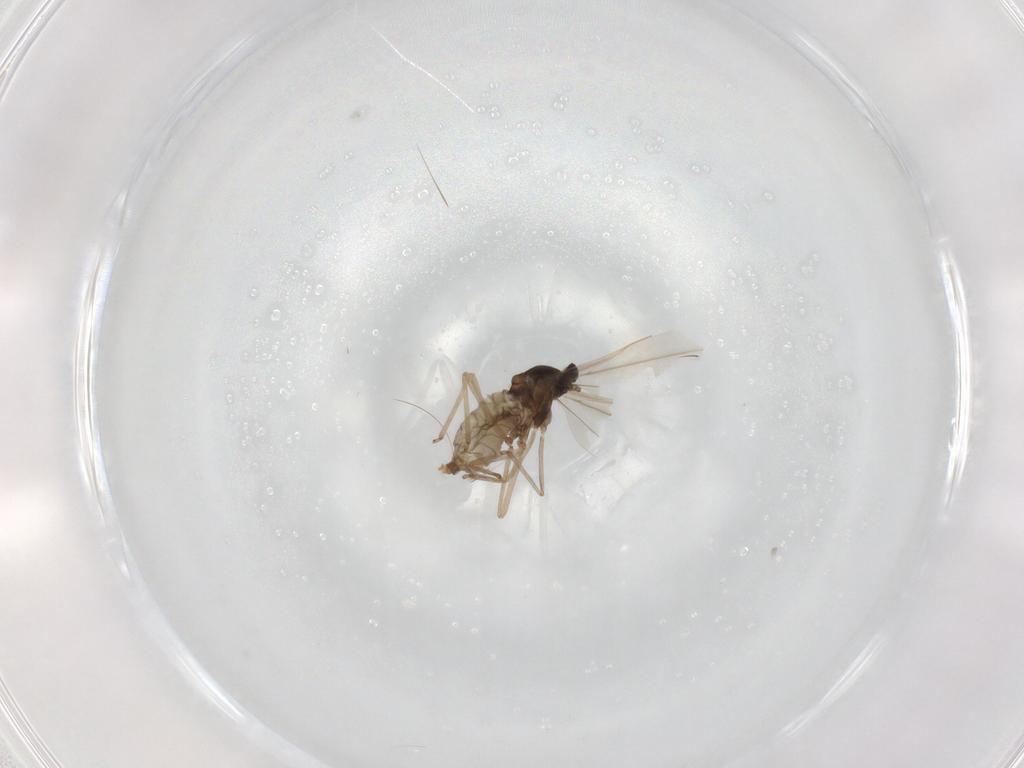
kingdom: Animalia
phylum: Arthropoda
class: Insecta
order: Diptera
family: Cecidomyiidae
